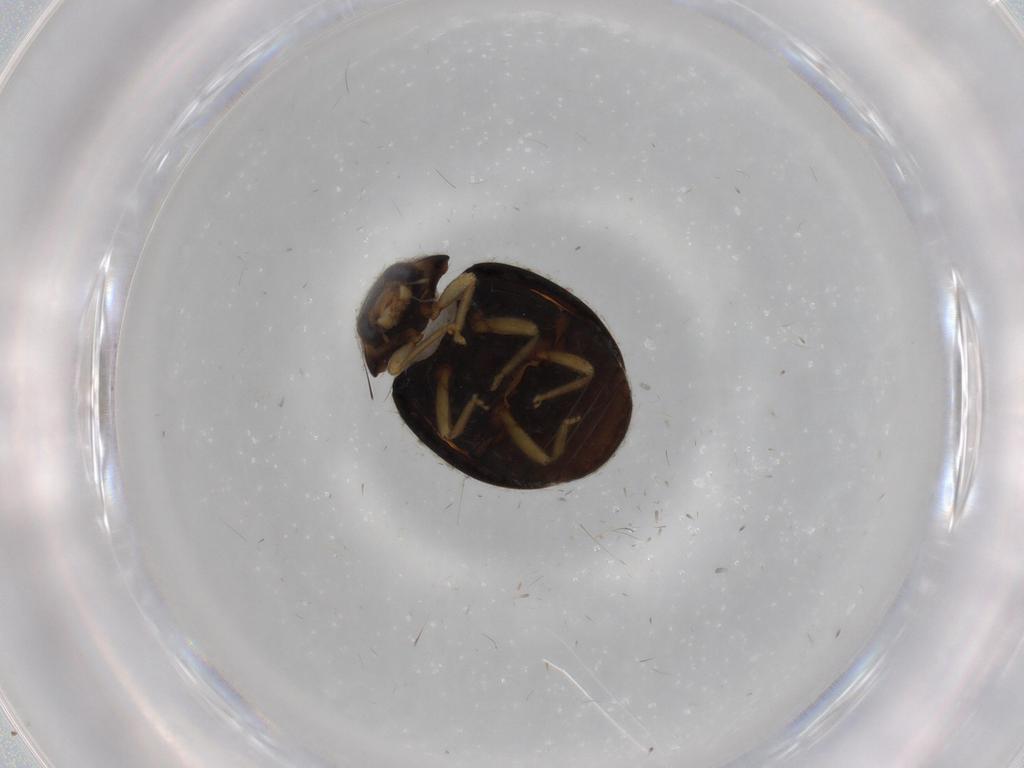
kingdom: Animalia
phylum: Arthropoda
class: Insecta
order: Coleoptera
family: Coccinellidae
